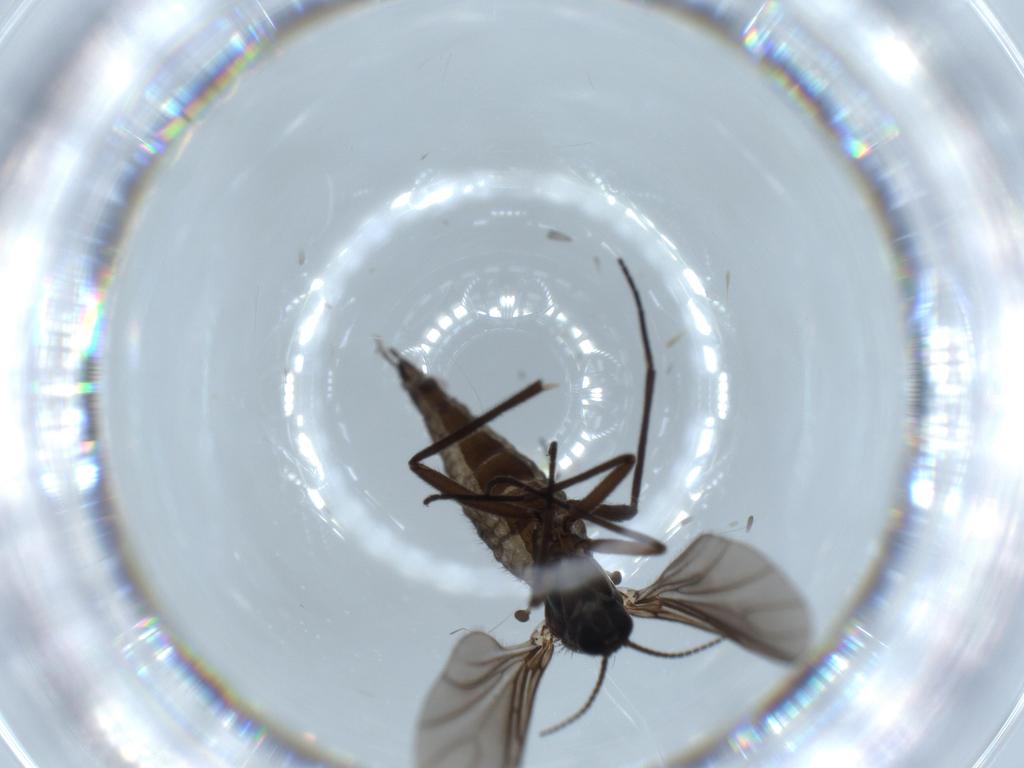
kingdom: Animalia
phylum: Arthropoda
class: Insecta
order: Diptera
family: Sciaridae
